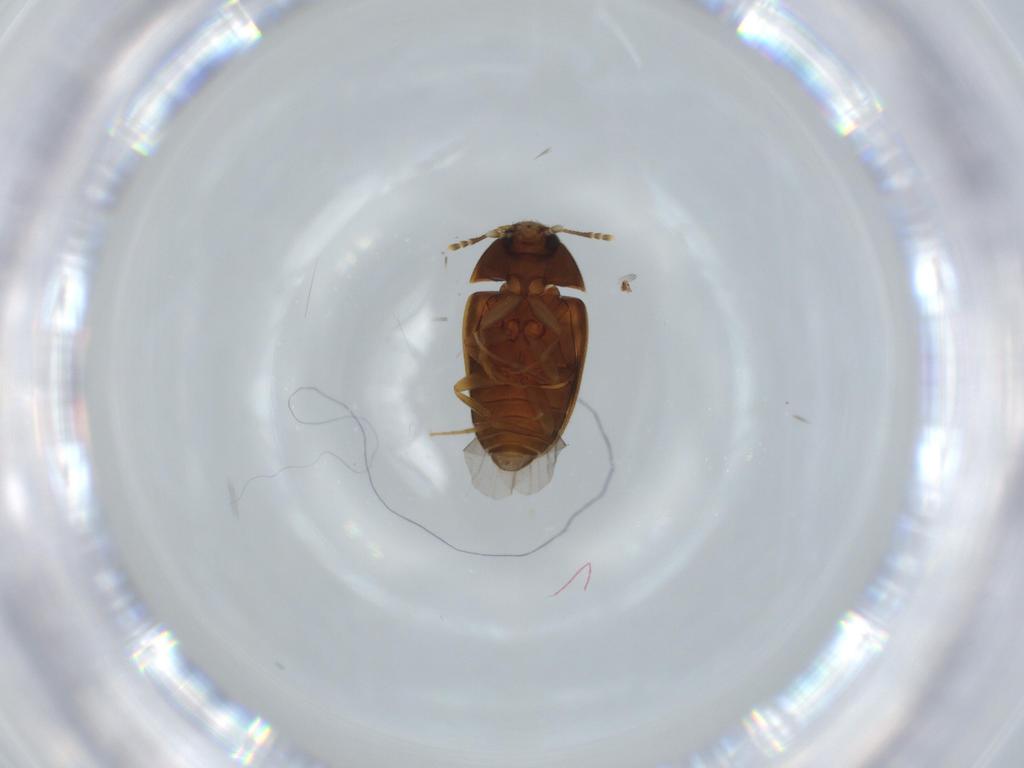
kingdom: Animalia
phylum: Arthropoda
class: Insecta
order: Coleoptera
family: Mycetophagidae
